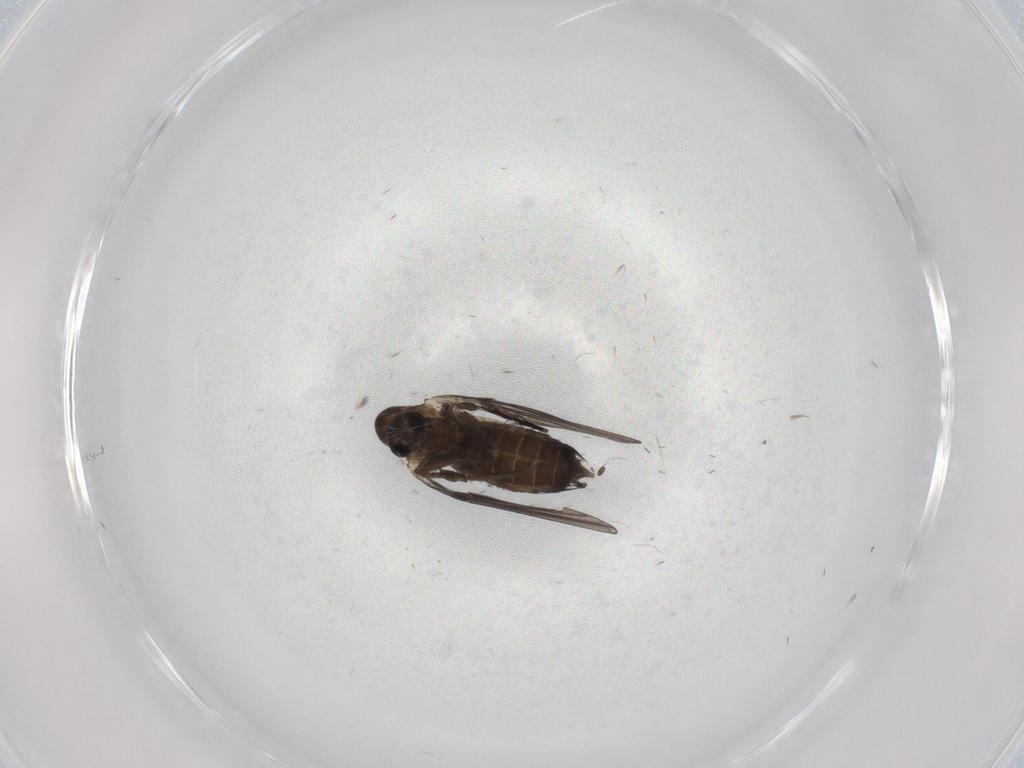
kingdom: Animalia
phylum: Arthropoda
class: Insecta
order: Diptera
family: Sciaridae
